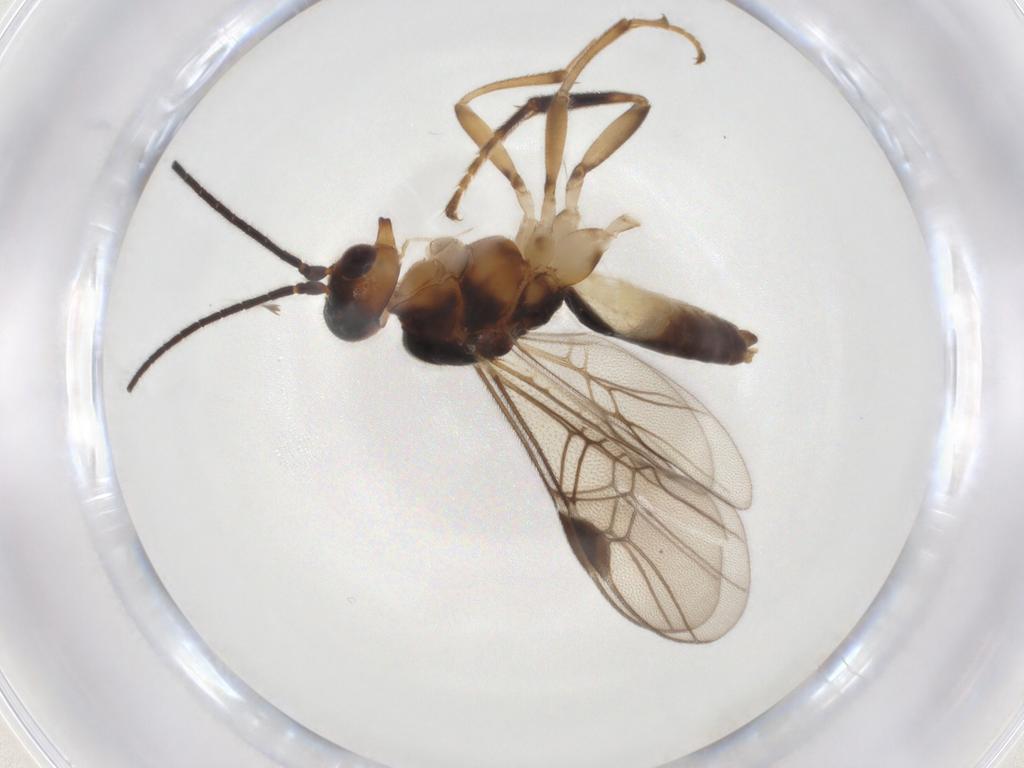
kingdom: Animalia
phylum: Arthropoda
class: Insecta
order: Hymenoptera
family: Braconidae
